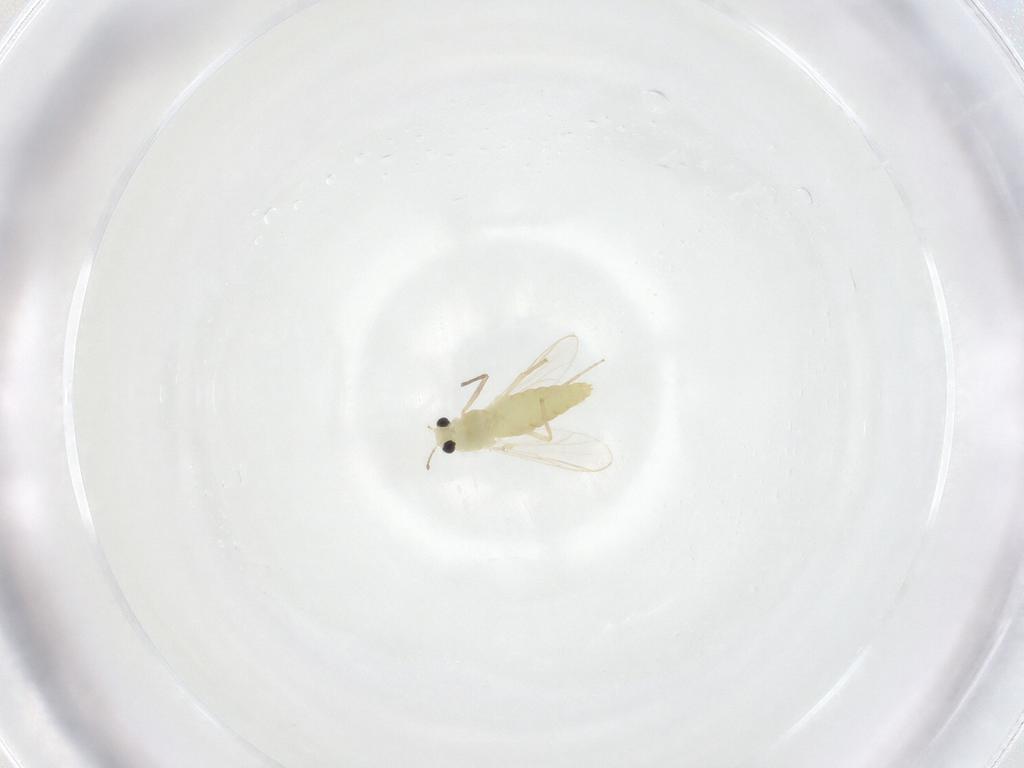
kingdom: Animalia
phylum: Arthropoda
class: Insecta
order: Diptera
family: Chironomidae
